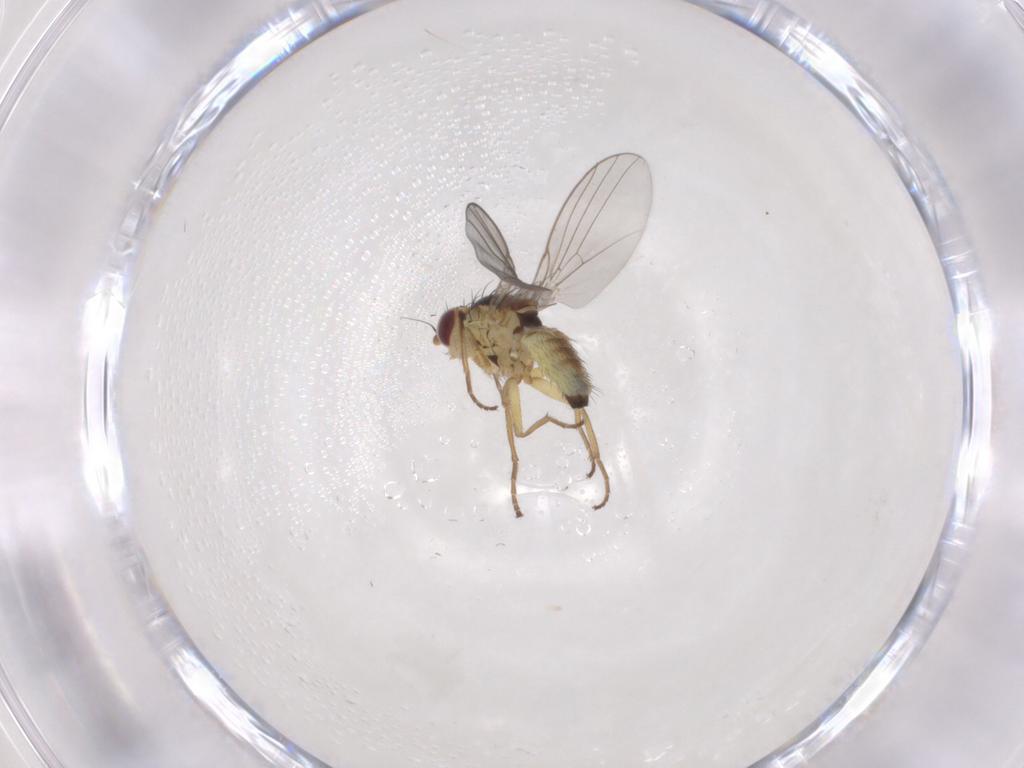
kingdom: Animalia
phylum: Arthropoda
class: Insecta
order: Diptera
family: Agromyzidae
